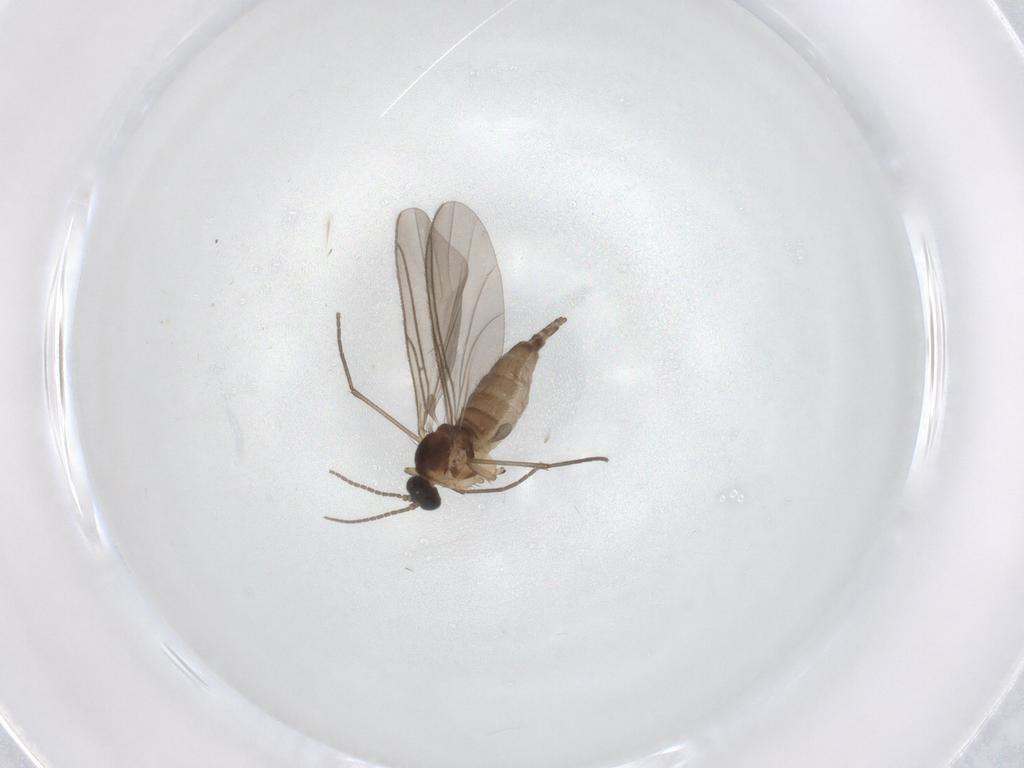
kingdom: Animalia
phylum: Arthropoda
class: Insecta
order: Diptera
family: Sciaridae
